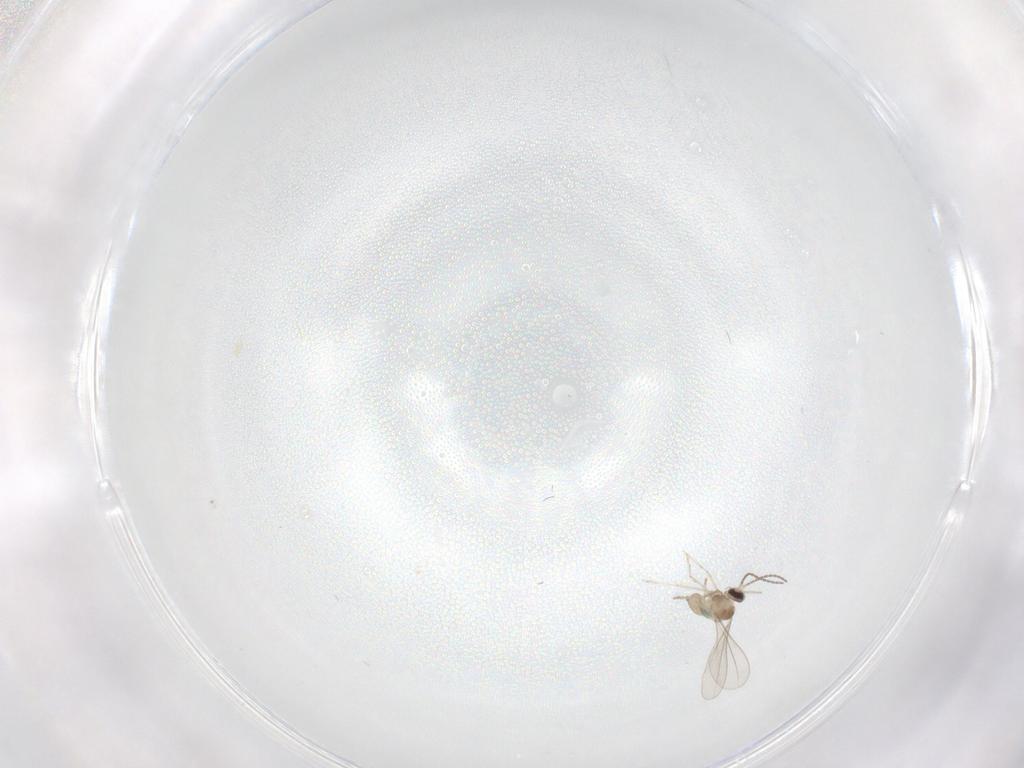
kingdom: Animalia
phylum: Arthropoda
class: Insecta
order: Diptera
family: Cecidomyiidae
